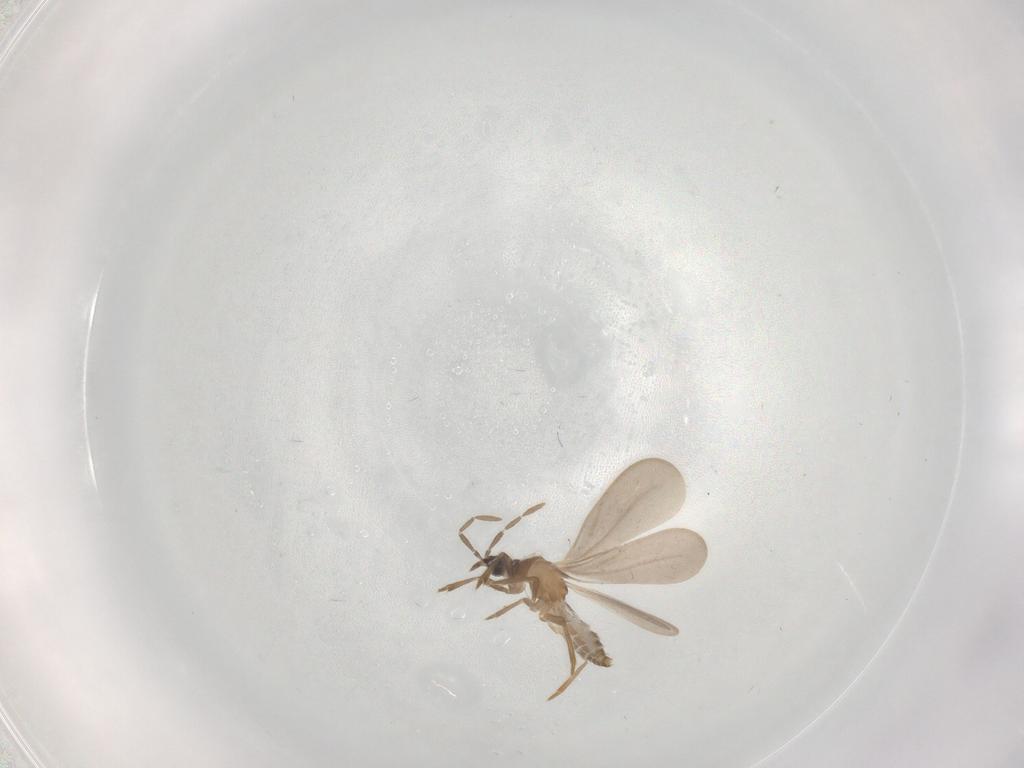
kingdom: Animalia
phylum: Arthropoda
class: Insecta
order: Hemiptera
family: Enicocephalidae
